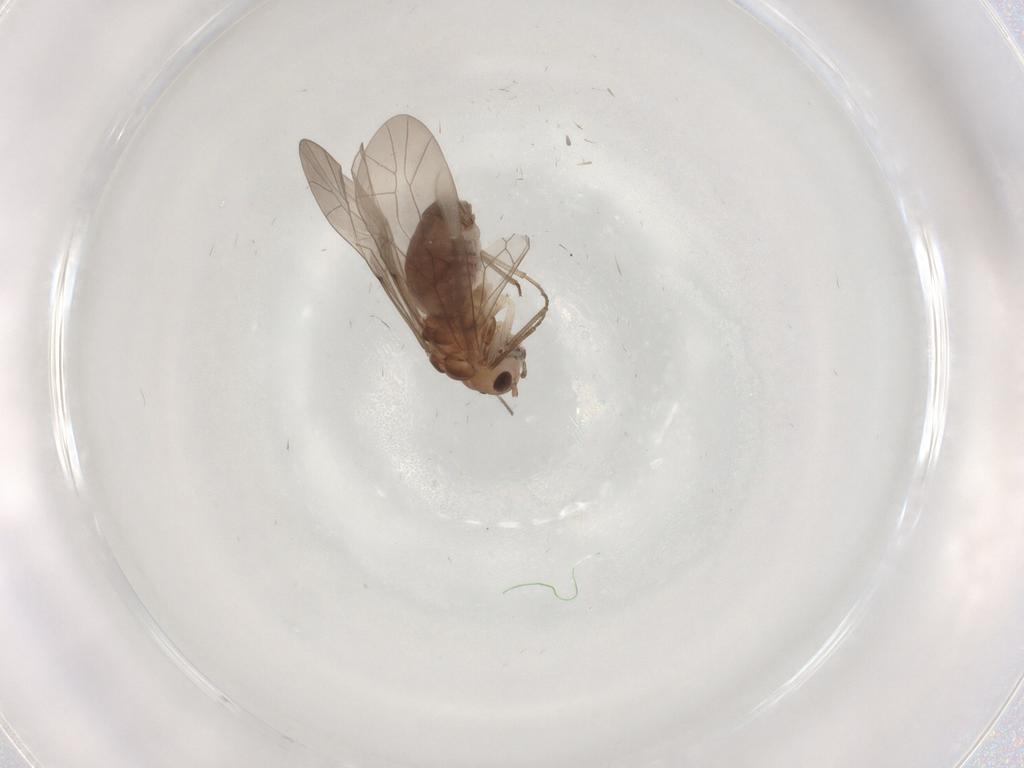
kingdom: Animalia
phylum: Arthropoda
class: Insecta
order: Psocodea
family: Peripsocidae
